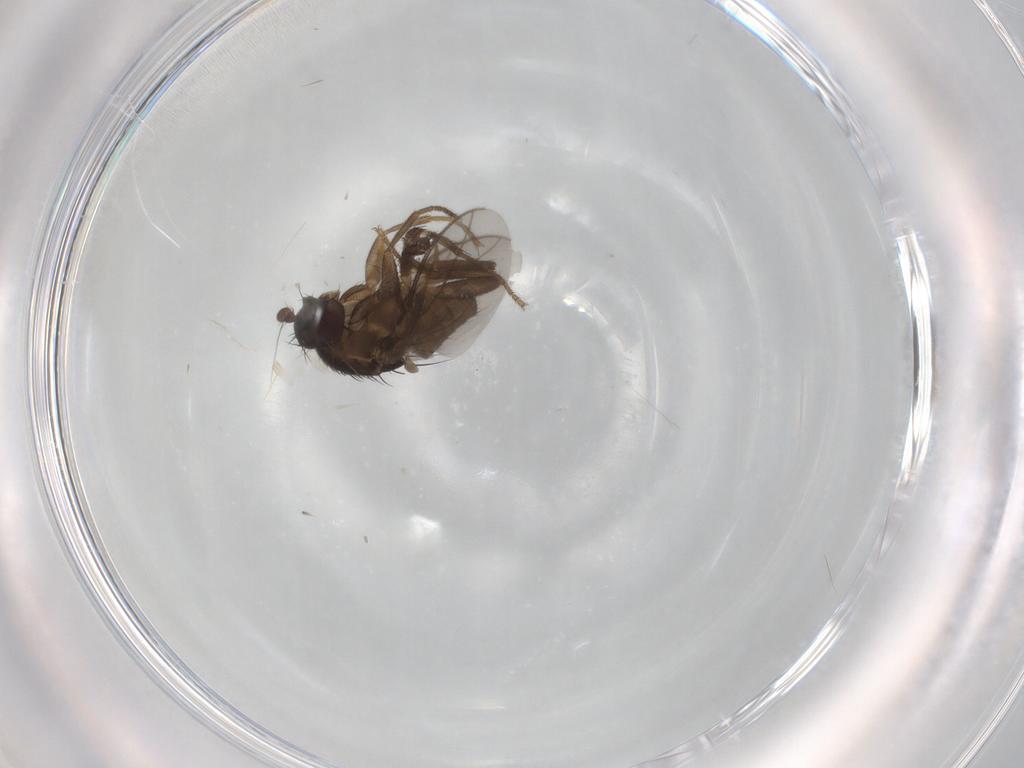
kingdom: Animalia
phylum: Arthropoda
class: Insecta
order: Diptera
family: Sphaeroceridae
